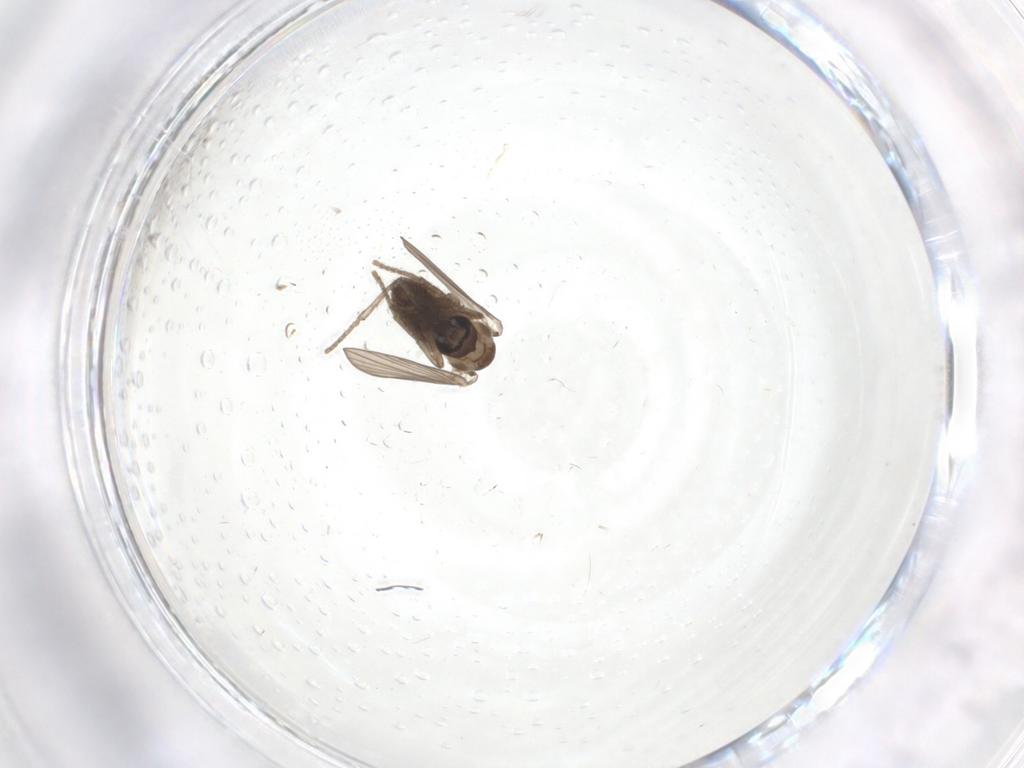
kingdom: Animalia
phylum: Arthropoda
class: Insecta
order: Diptera
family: Psychodidae
